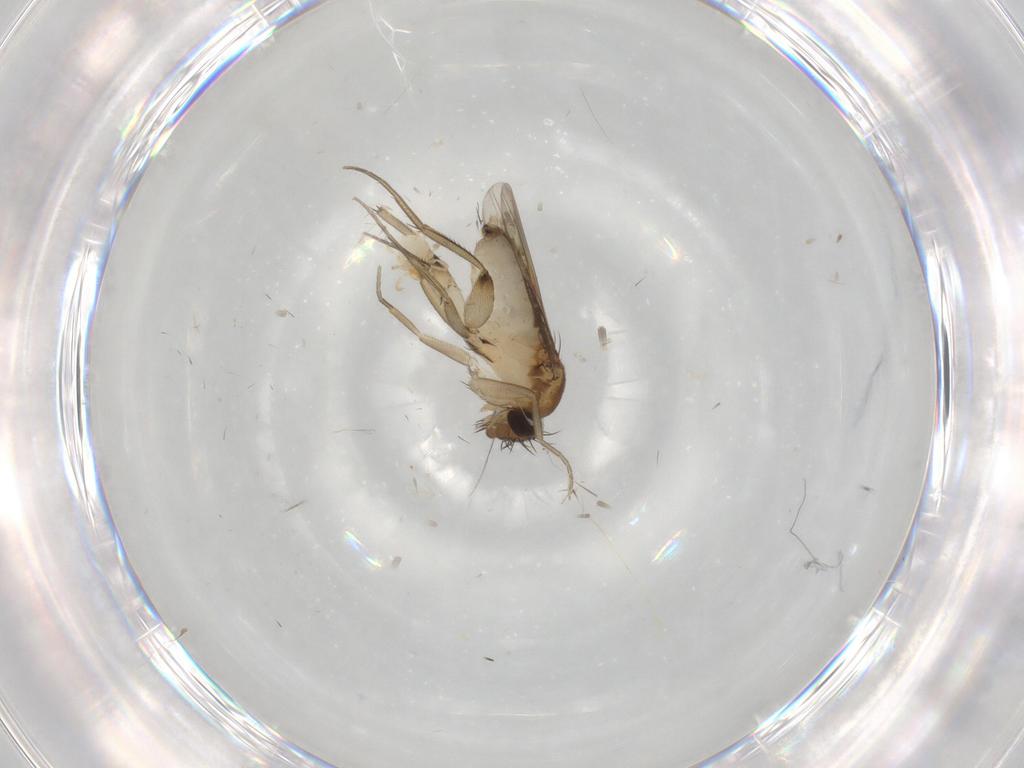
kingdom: Animalia
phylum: Arthropoda
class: Insecta
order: Diptera
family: Phoridae
